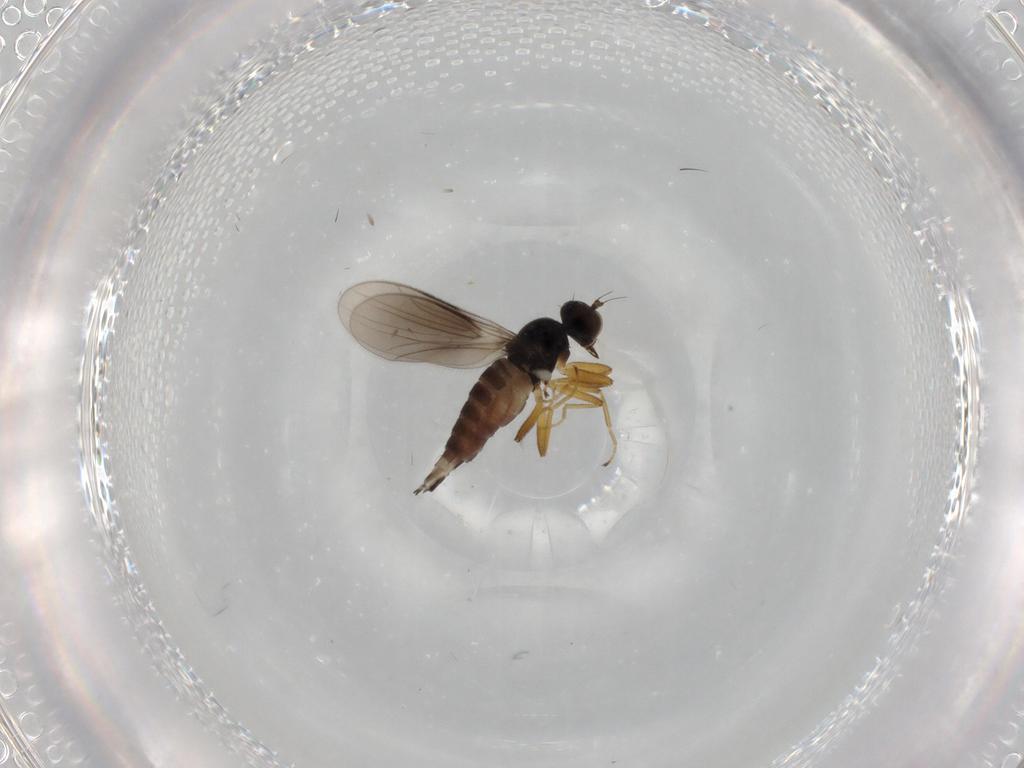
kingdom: Animalia
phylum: Arthropoda
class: Insecta
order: Diptera
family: Hybotidae
